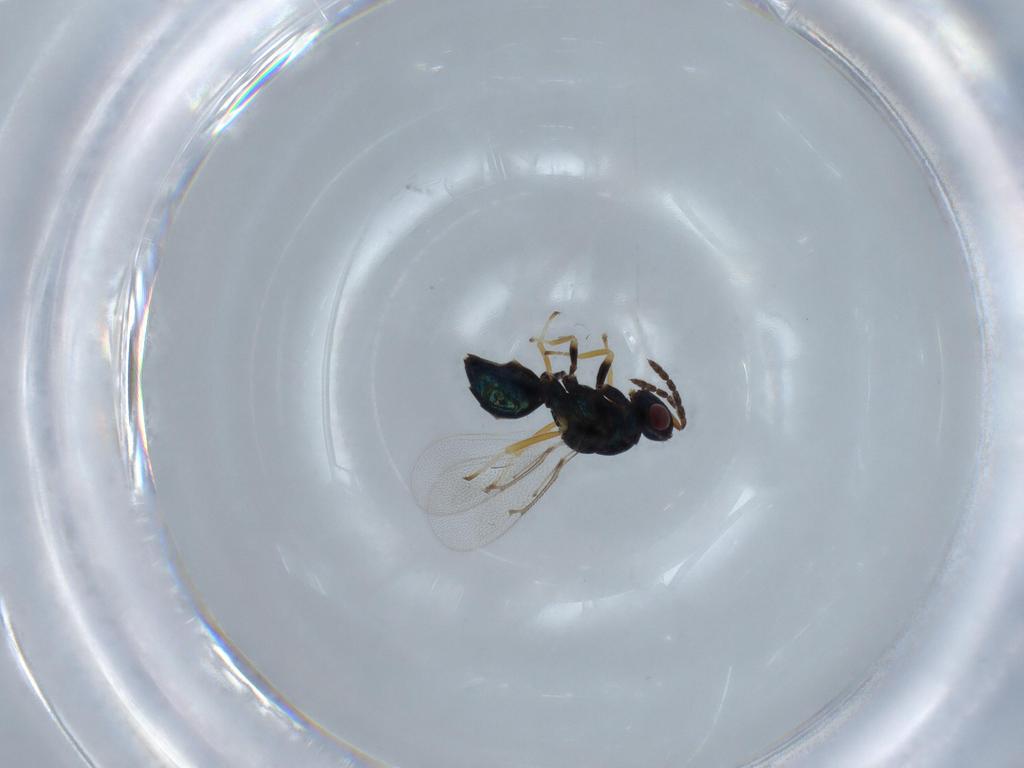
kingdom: Animalia
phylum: Arthropoda
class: Insecta
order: Hymenoptera
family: Eulophidae
